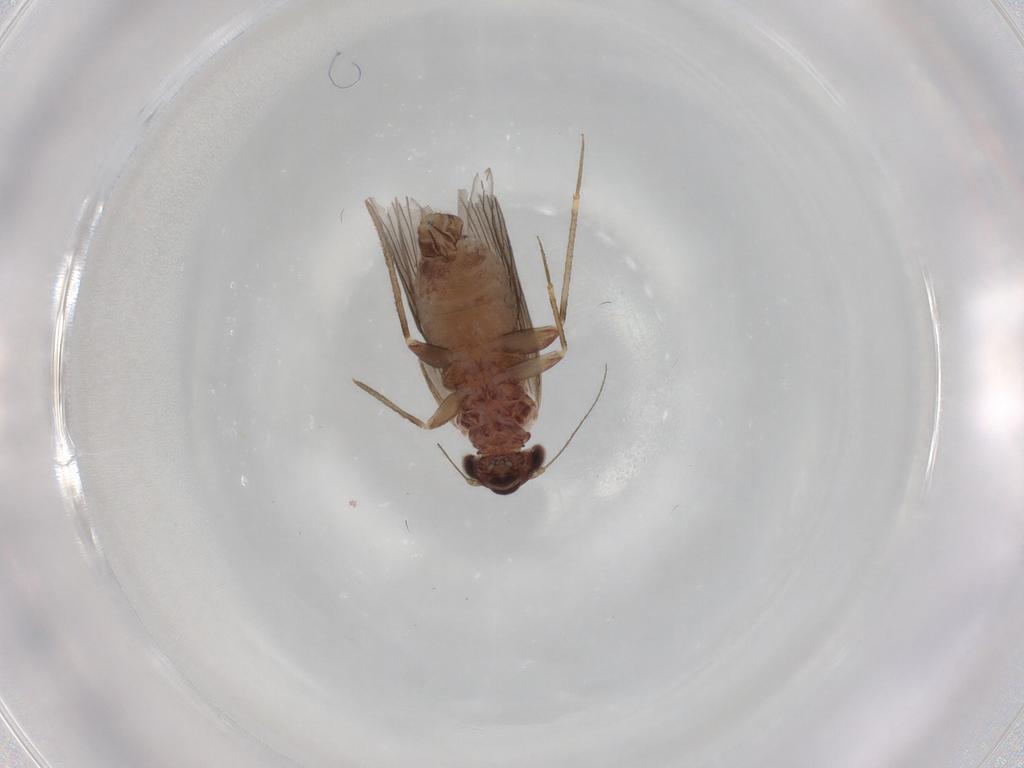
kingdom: Animalia
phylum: Arthropoda
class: Insecta
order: Psocodea
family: Lepidopsocidae
